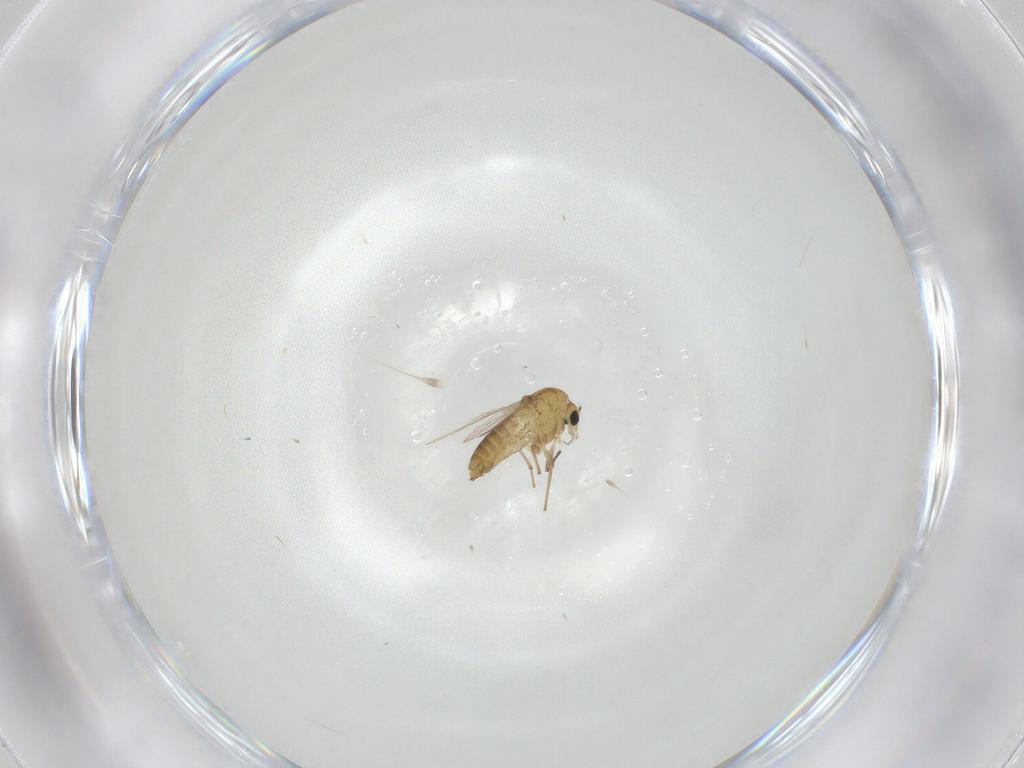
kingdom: Animalia
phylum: Arthropoda
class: Insecta
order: Diptera
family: Chironomidae
